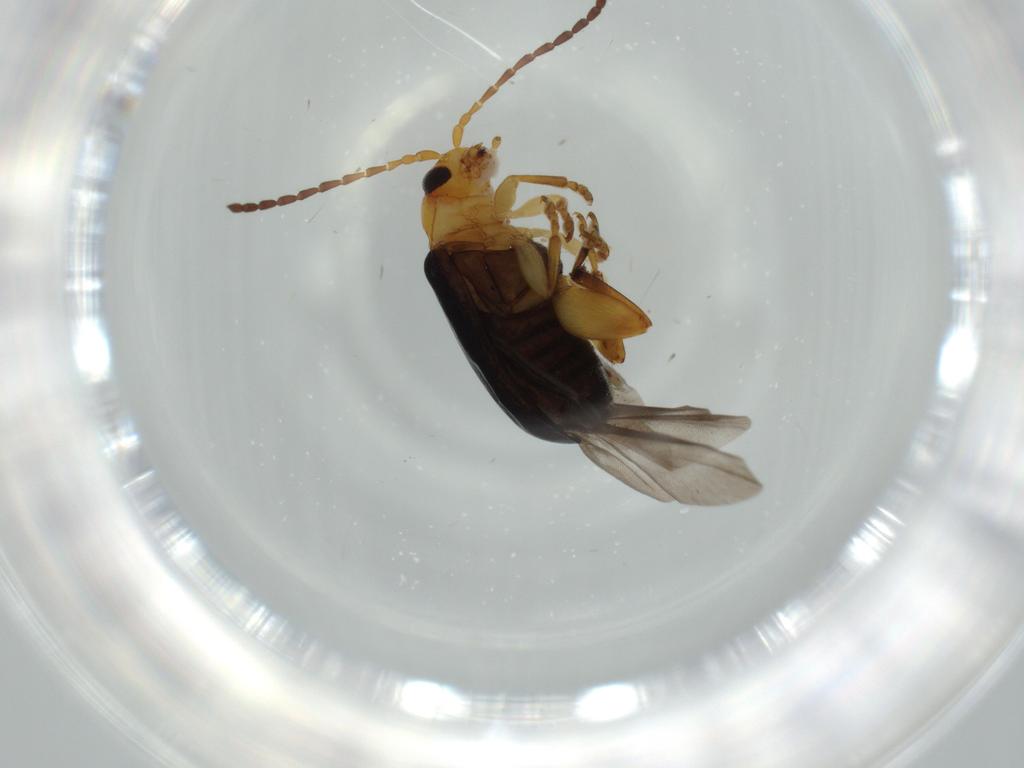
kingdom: Animalia
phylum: Arthropoda
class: Insecta
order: Coleoptera
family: Chrysomelidae
